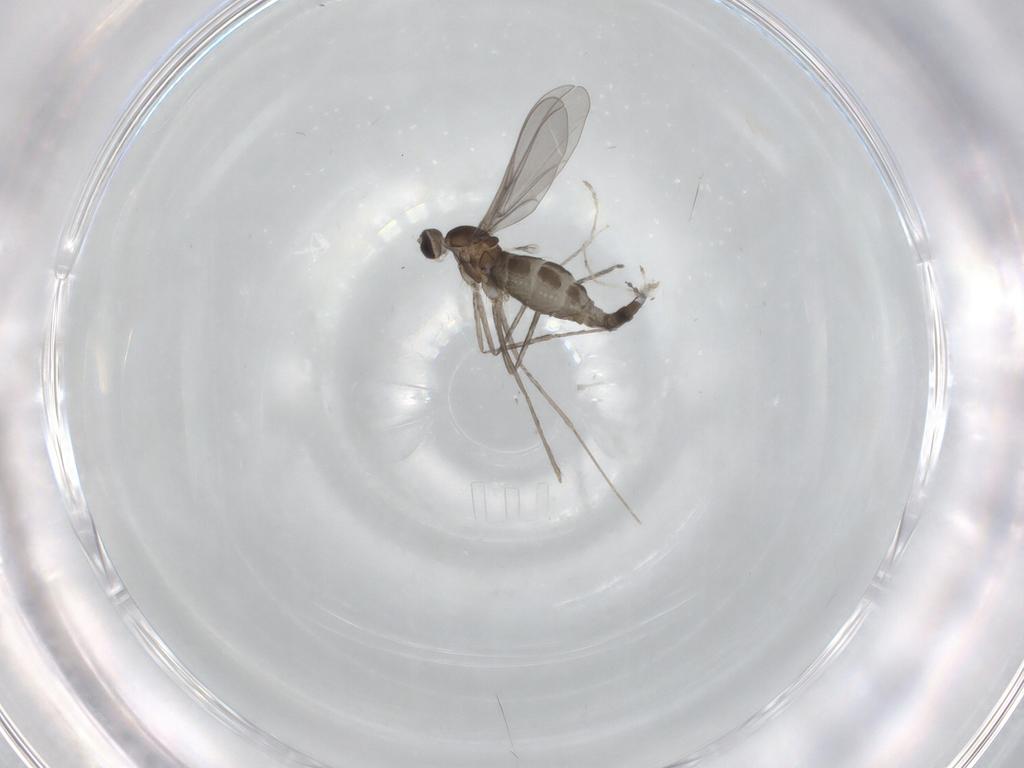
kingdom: Animalia
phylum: Arthropoda
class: Insecta
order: Diptera
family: Cecidomyiidae
